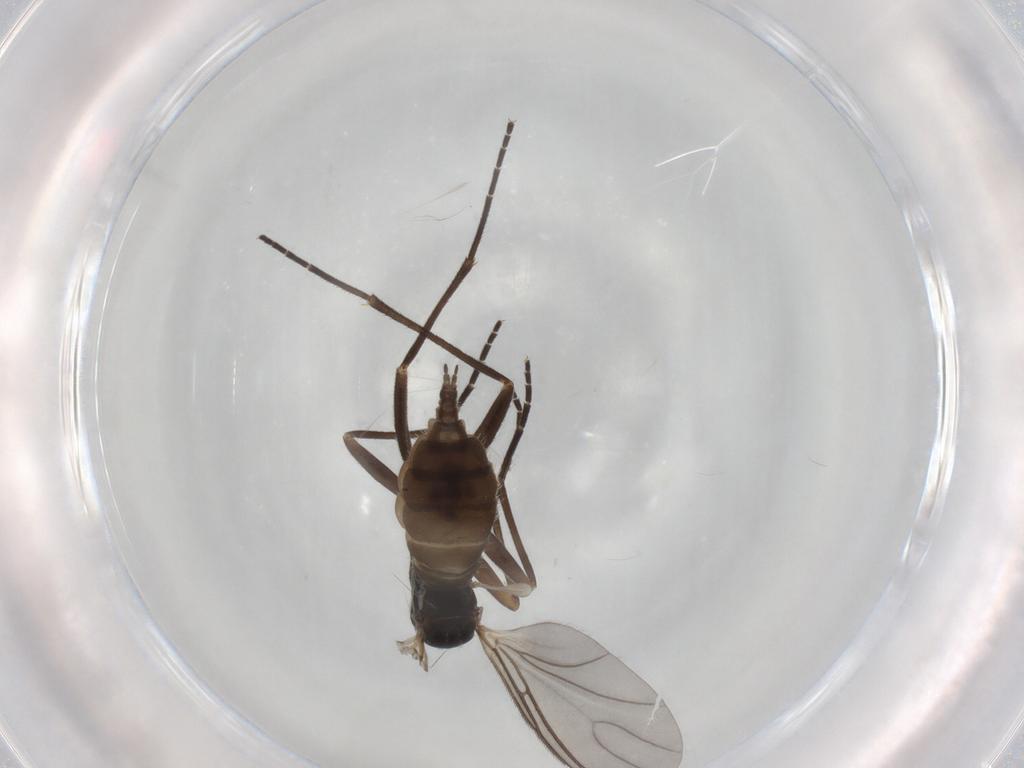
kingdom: Animalia
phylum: Arthropoda
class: Insecta
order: Diptera
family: Sciaridae
